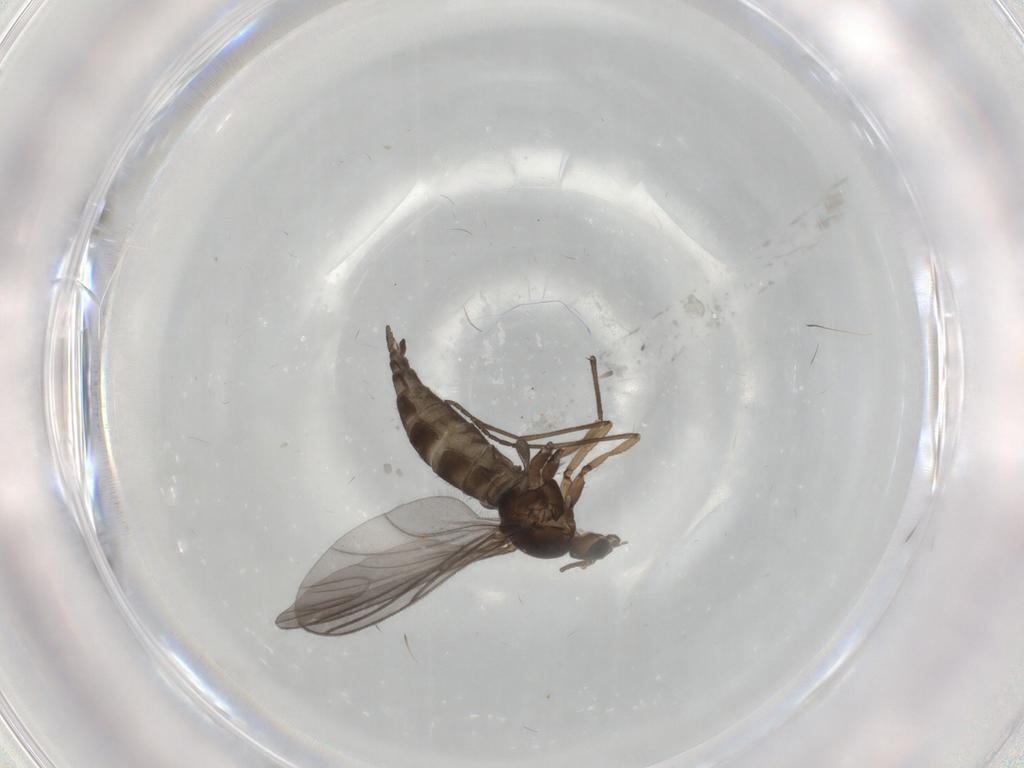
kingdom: Animalia
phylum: Arthropoda
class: Insecta
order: Diptera
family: Sciaridae
